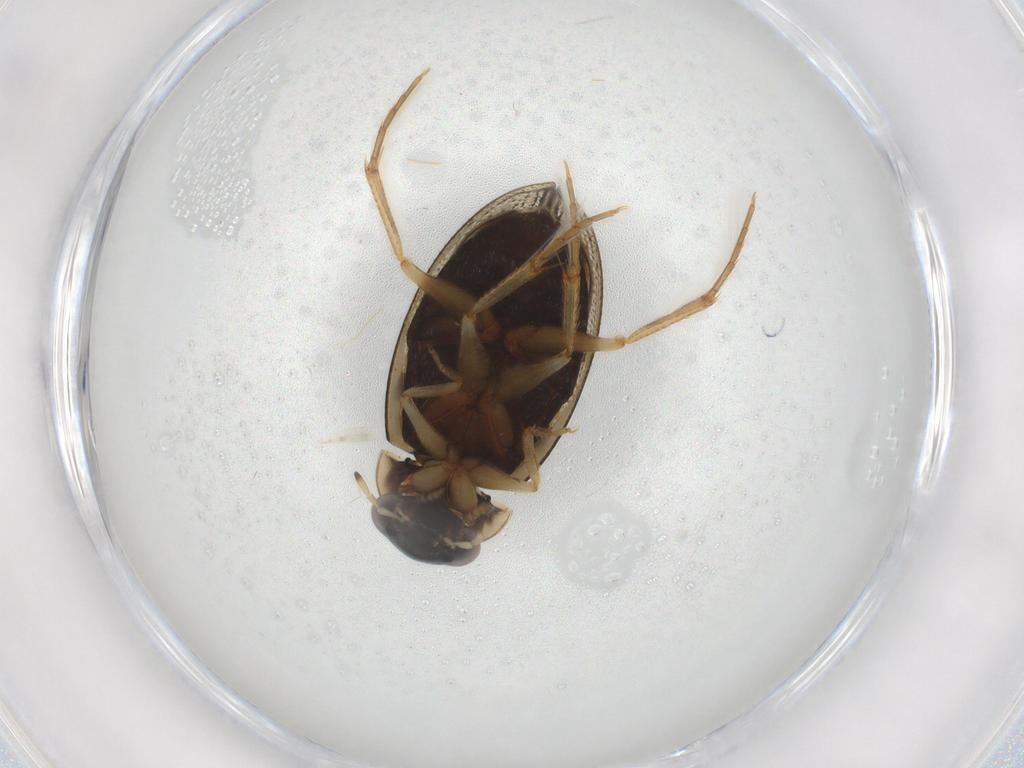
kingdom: Animalia
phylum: Arthropoda
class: Insecta
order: Coleoptera
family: Hydrophilidae
